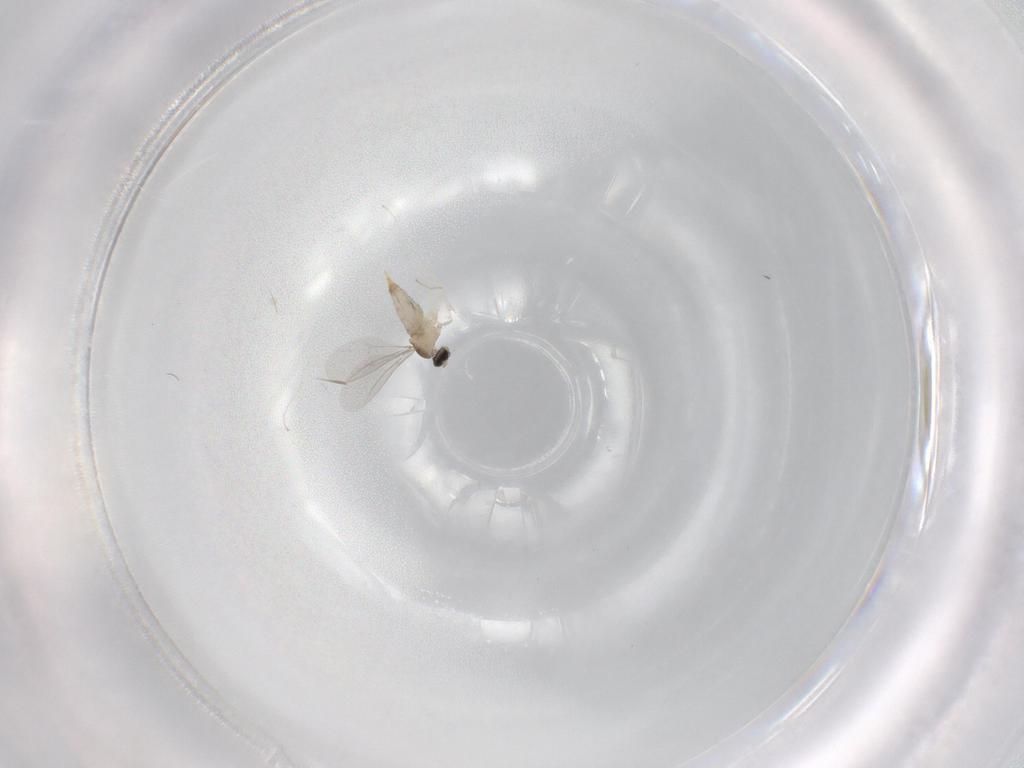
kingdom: Animalia
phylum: Arthropoda
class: Insecta
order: Diptera
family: Cecidomyiidae
